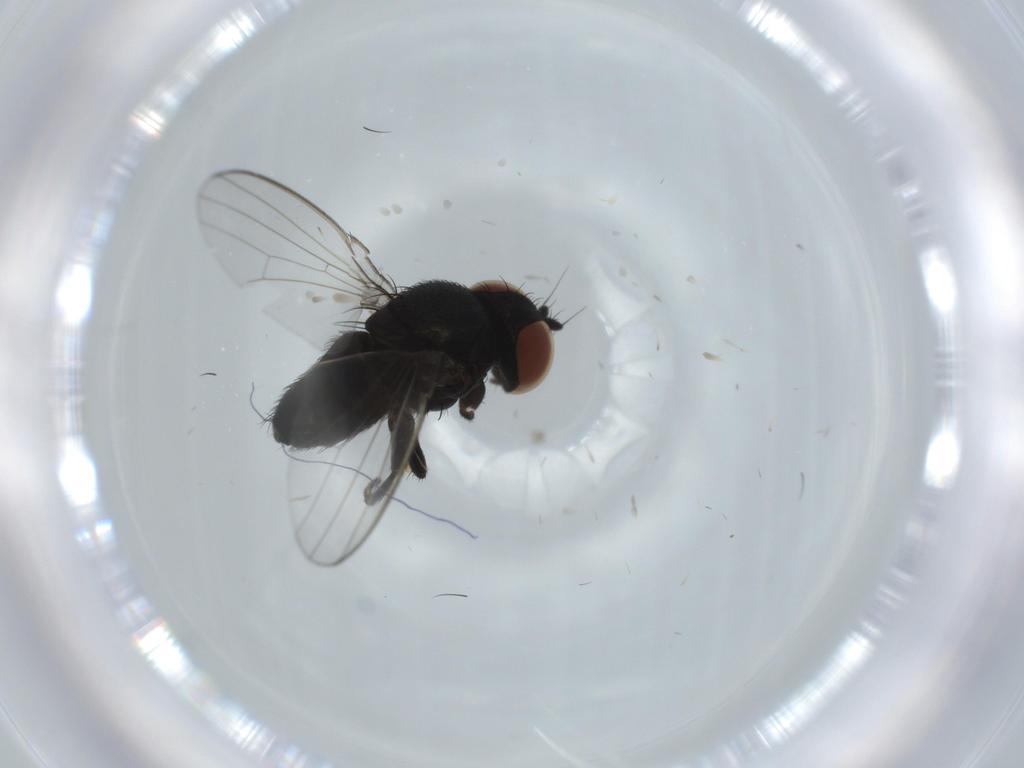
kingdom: Animalia
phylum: Arthropoda
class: Insecta
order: Diptera
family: Milichiidae
